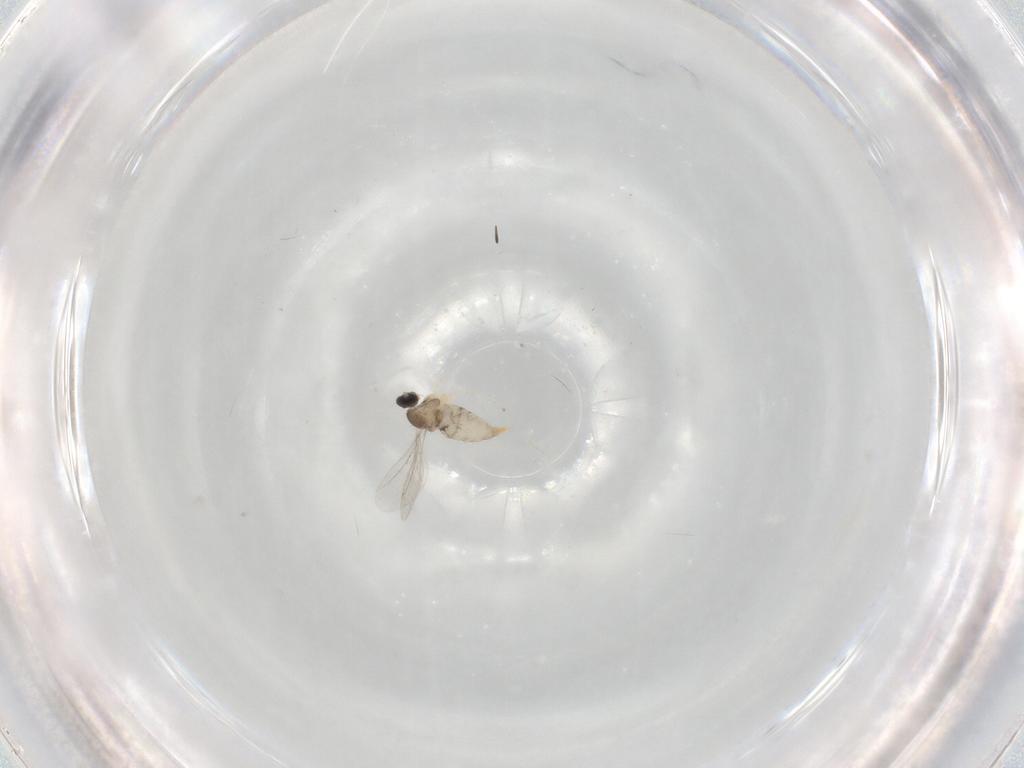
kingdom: Animalia
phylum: Arthropoda
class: Insecta
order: Diptera
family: Cecidomyiidae
